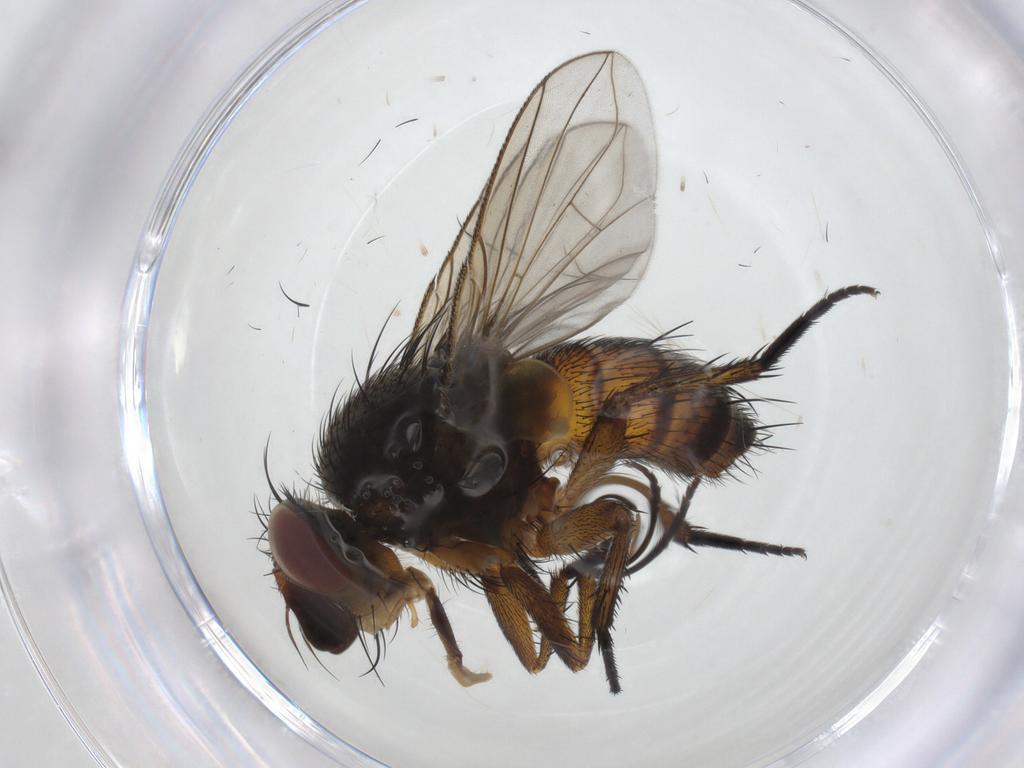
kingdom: Animalia
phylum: Arthropoda
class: Insecta
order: Diptera
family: Tachinidae
